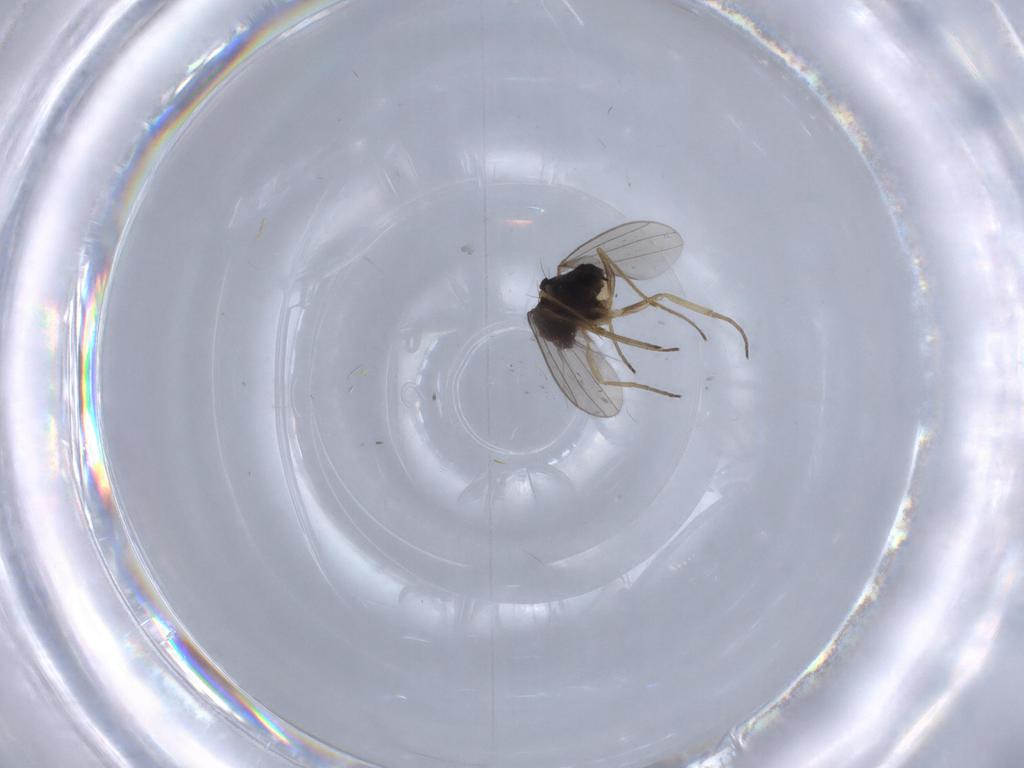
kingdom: Animalia
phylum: Arthropoda
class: Insecta
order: Diptera
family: Dolichopodidae
